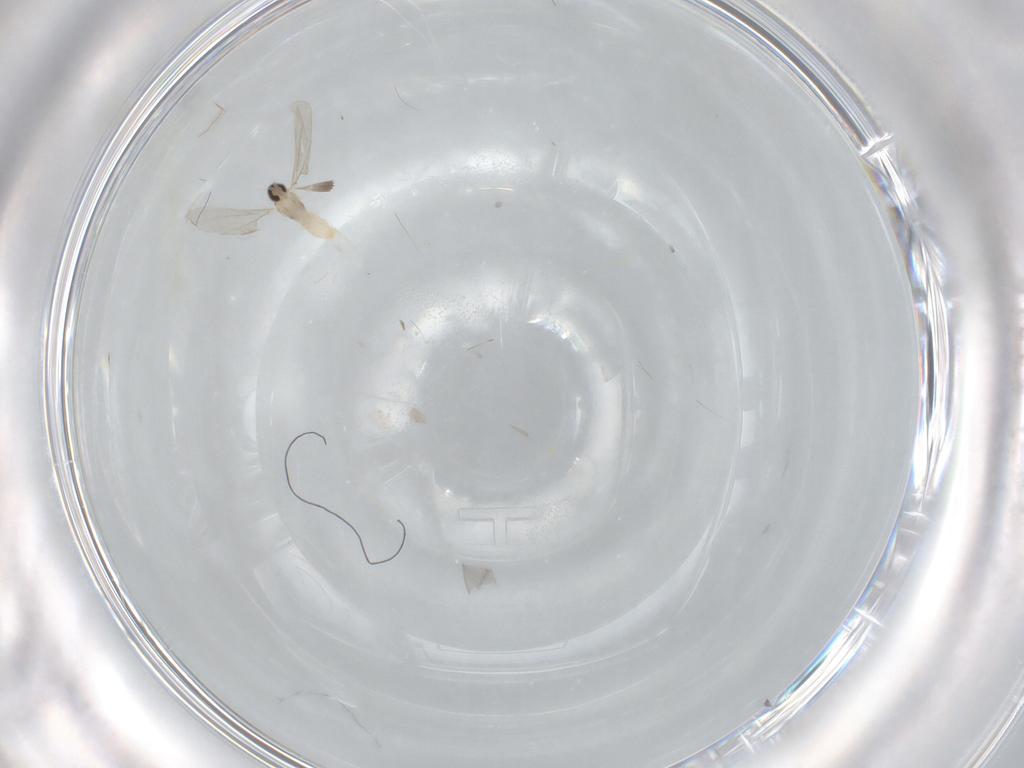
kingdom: Animalia
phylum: Arthropoda
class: Insecta
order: Diptera
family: Cecidomyiidae
